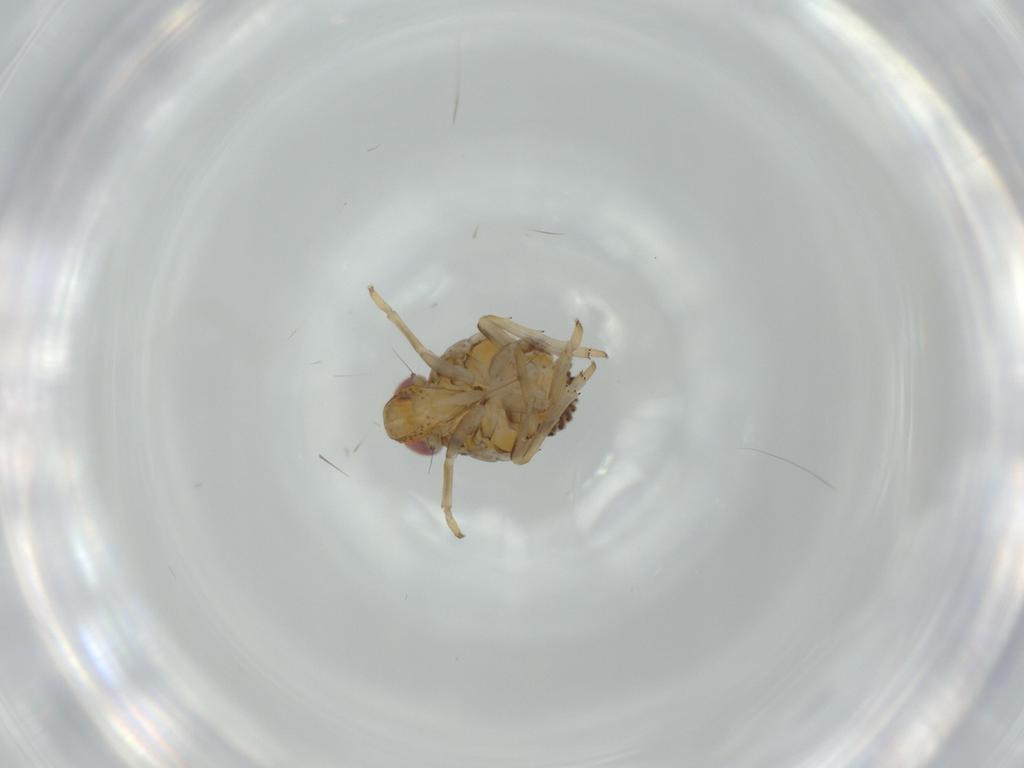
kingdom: Animalia
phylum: Arthropoda
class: Insecta
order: Hemiptera
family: Issidae
